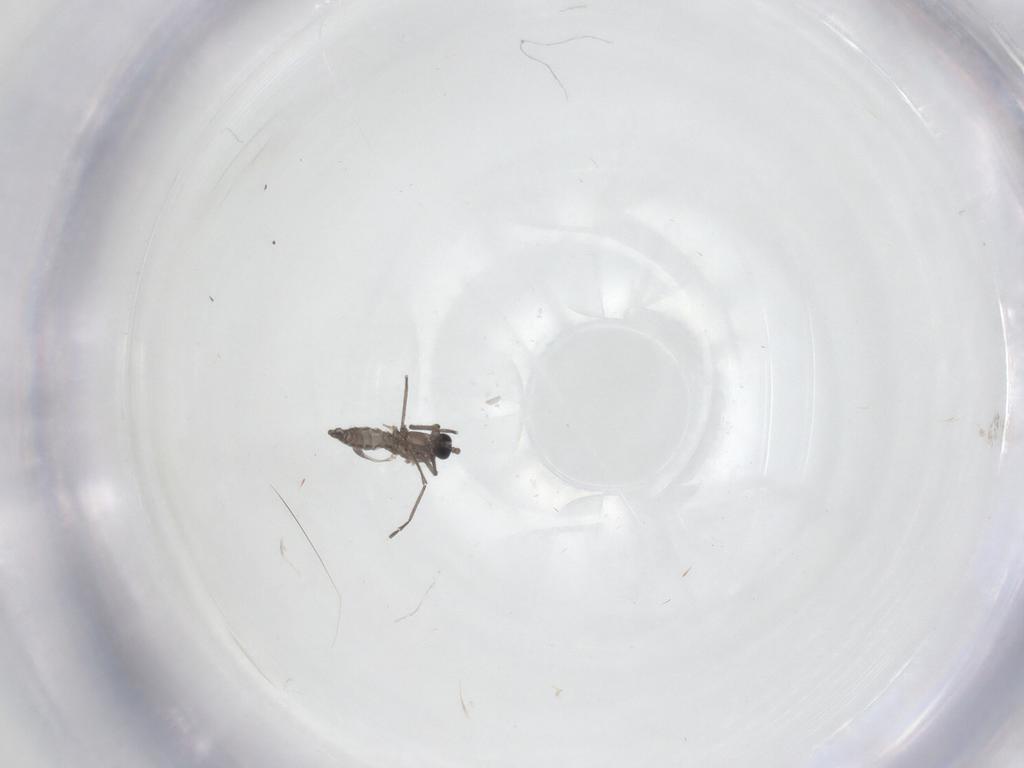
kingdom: Animalia
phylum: Arthropoda
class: Insecta
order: Diptera
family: Sciaridae
